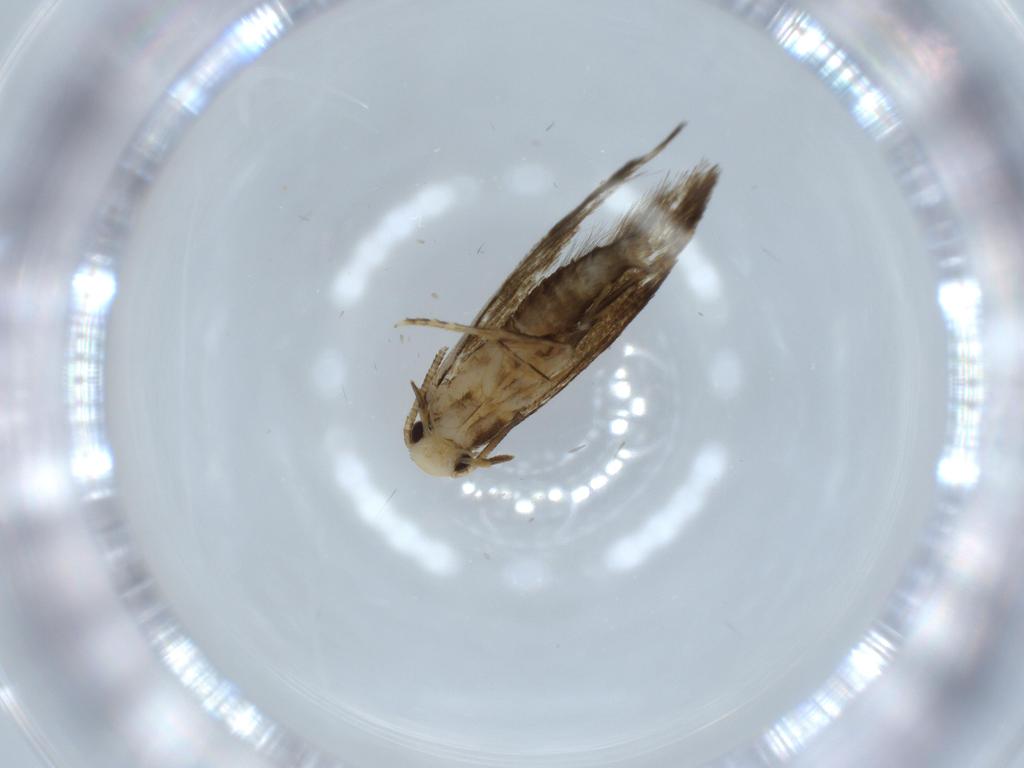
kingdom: Animalia
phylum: Arthropoda
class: Insecta
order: Lepidoptera
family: Tineidae
